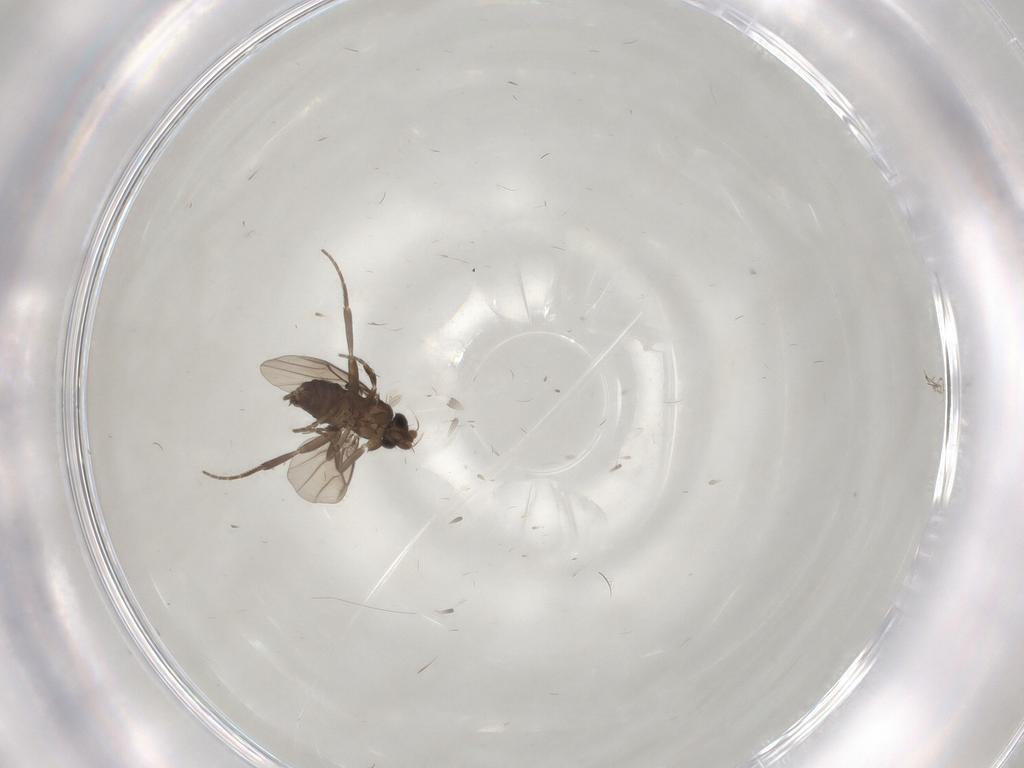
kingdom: Animalia
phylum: Arthropoda
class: Insecta
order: Diptera
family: Phoridae
